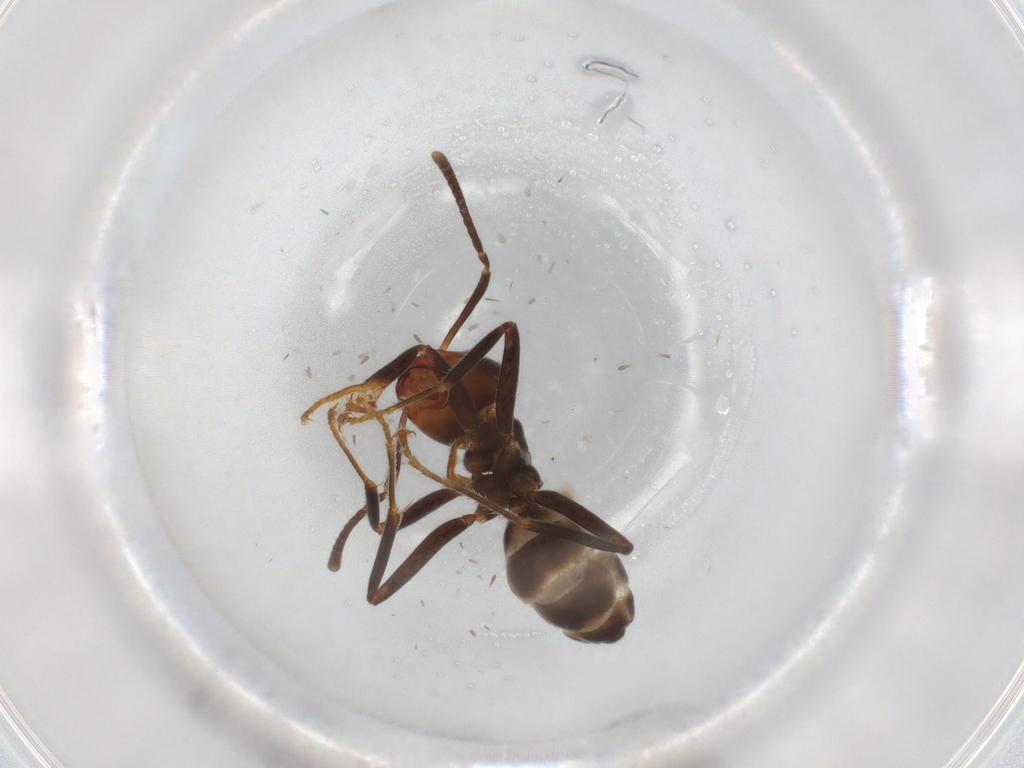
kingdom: Animalia
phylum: Arthropoda
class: Insecta
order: Hymenoptera
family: Formicidae
